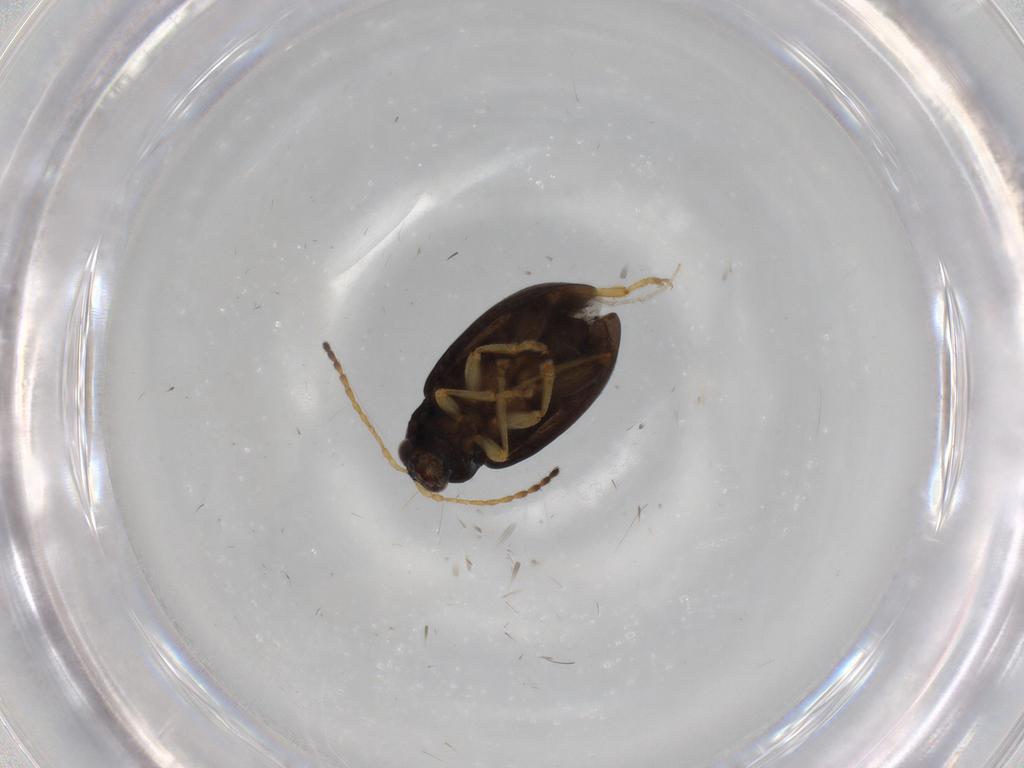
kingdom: Animalia
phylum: Arthropoda
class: Insecta
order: Coleoptera
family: Chrysomelidae
